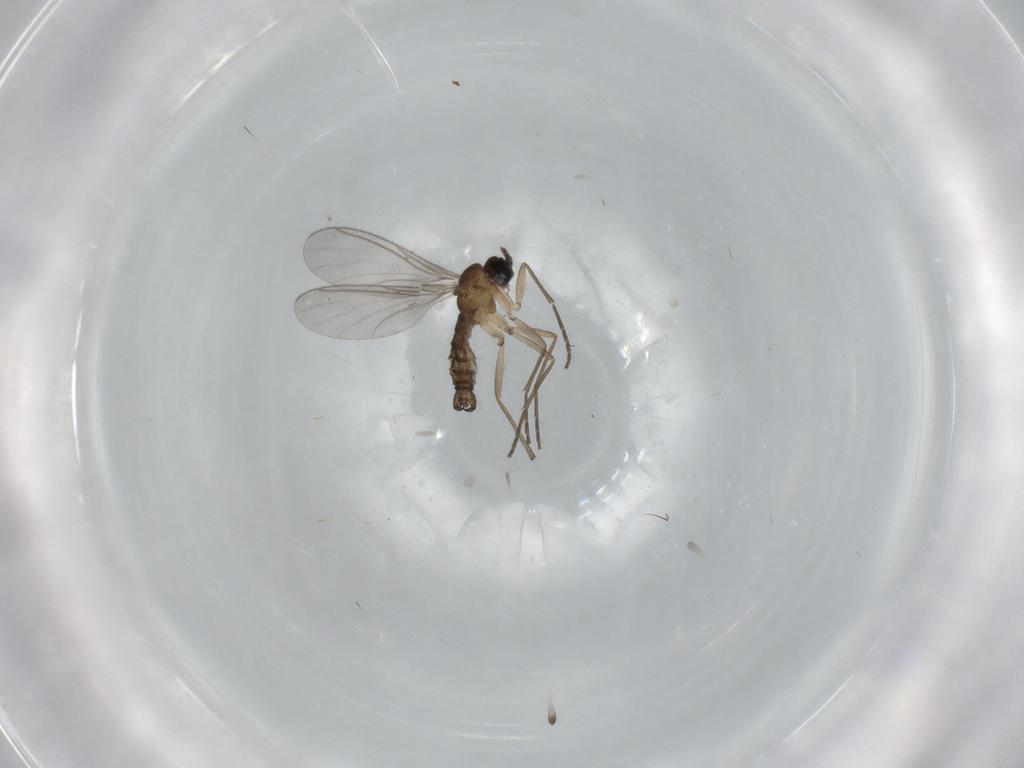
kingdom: Animalia
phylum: Arthropoda
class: Insecta
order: Diptera
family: Sciaridae
